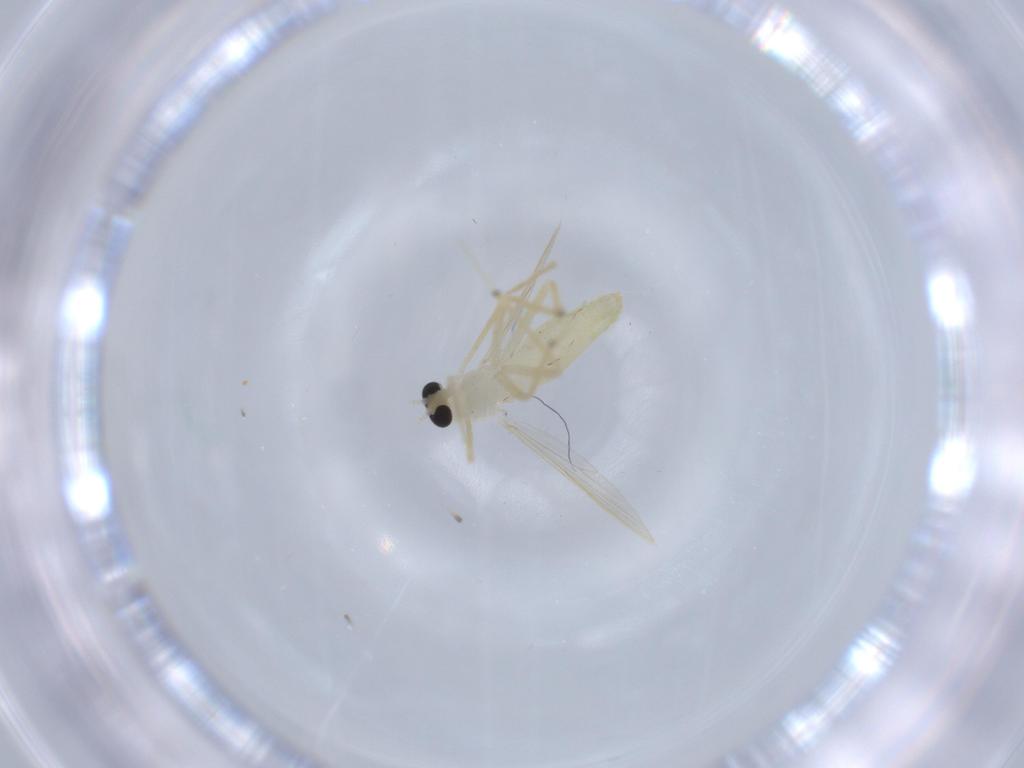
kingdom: Animalia
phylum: Arthropoda
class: Insecta
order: Diptera
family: Chironomidae
